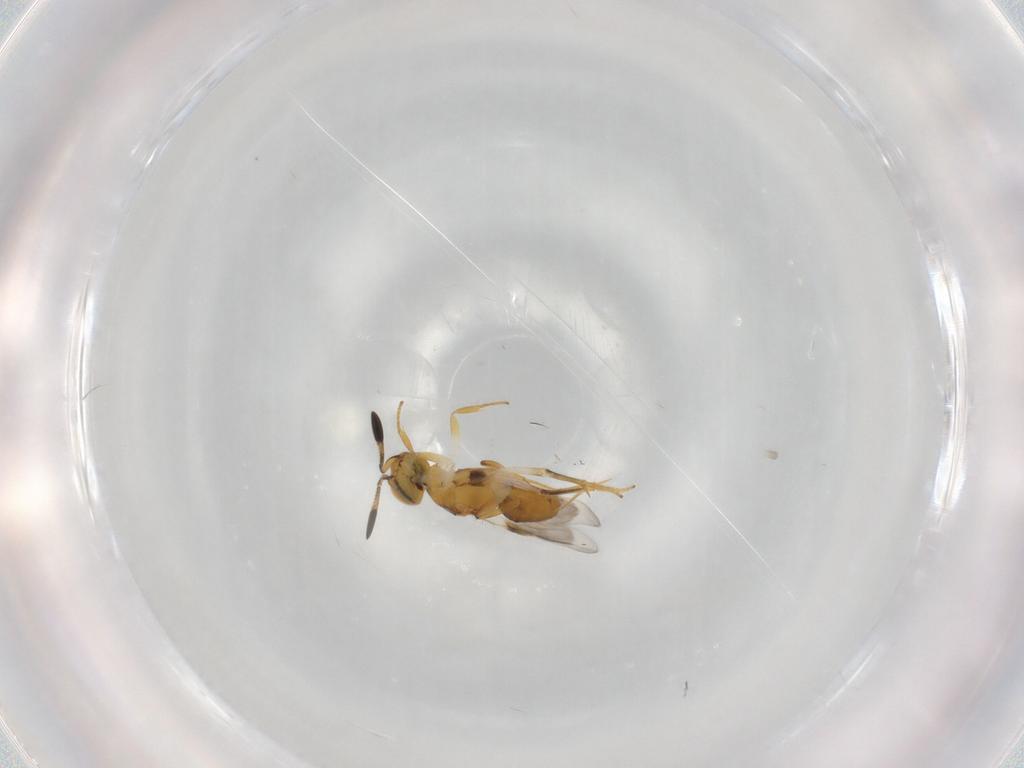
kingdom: Animalia
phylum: Arthropoda
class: Insecta
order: Hymenoptera
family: Encyrtidae
